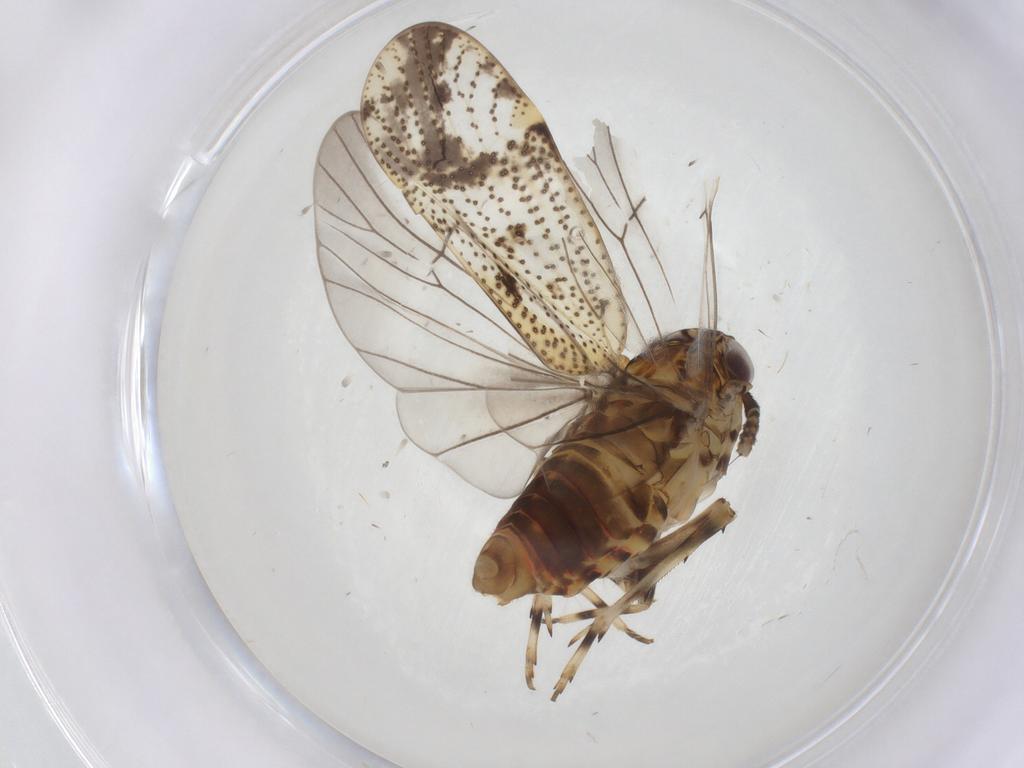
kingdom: Animalia
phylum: Arthropoda
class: Insecta
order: Hemiptera
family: Delphacidae
